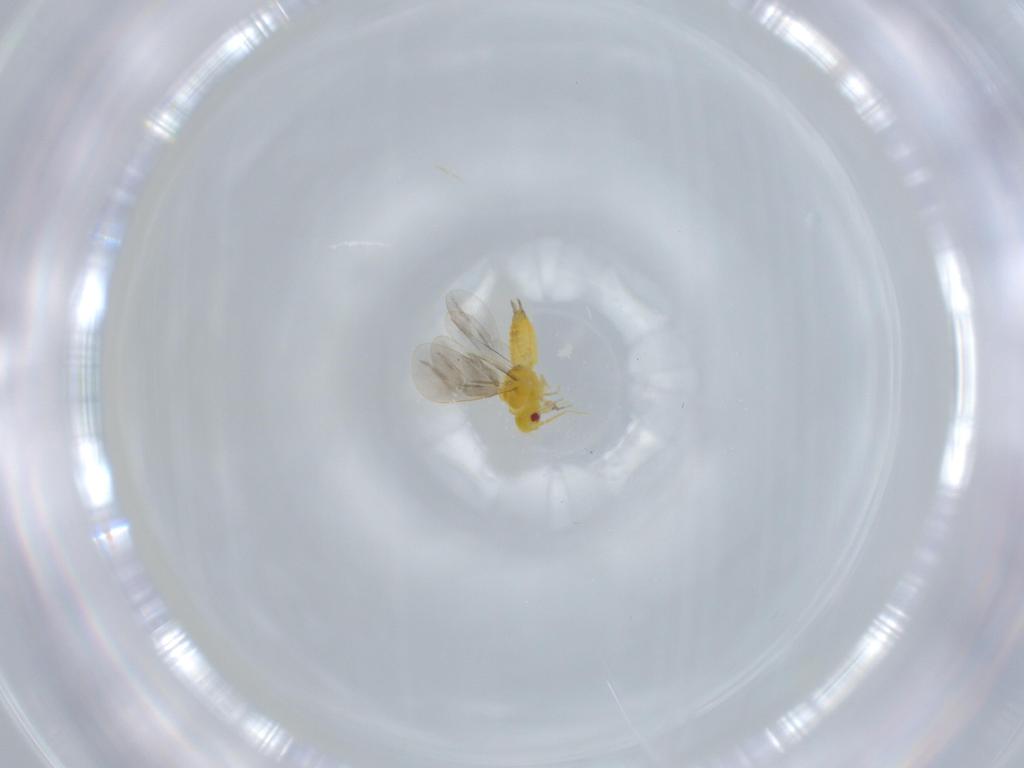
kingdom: Animalia
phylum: Arthropoda
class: Insecta
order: Hemiptera
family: Aleyrodidae
